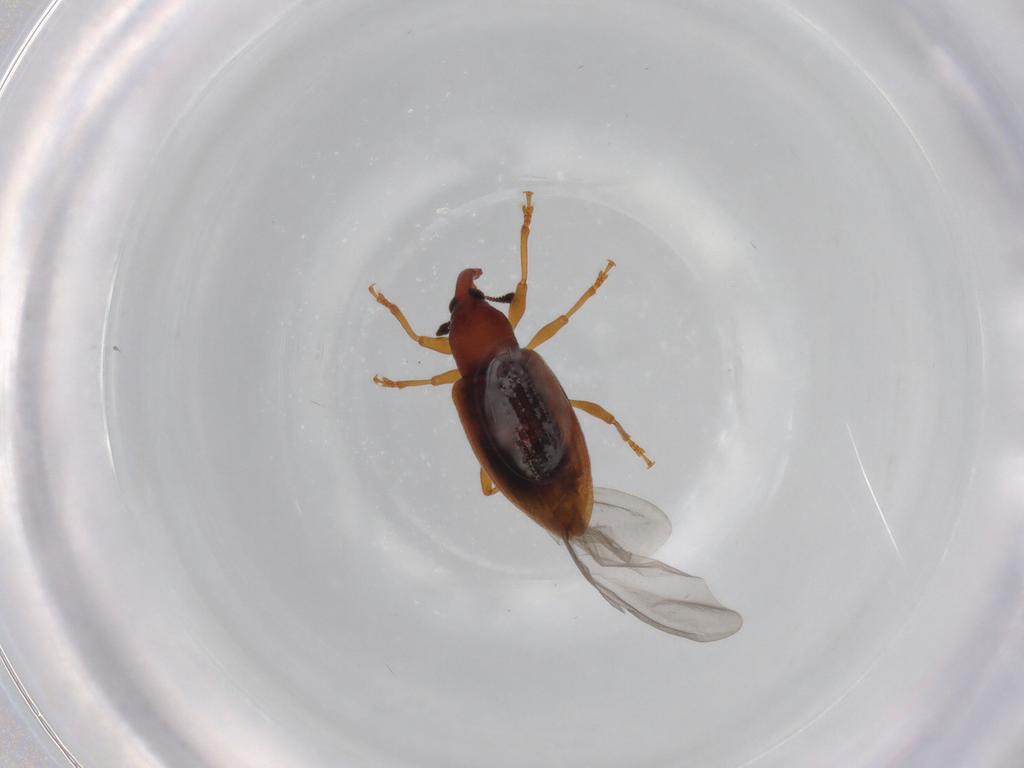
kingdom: Animalia
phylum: Arthropoda
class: Insecta
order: Coleoptera
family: Curculionidae
